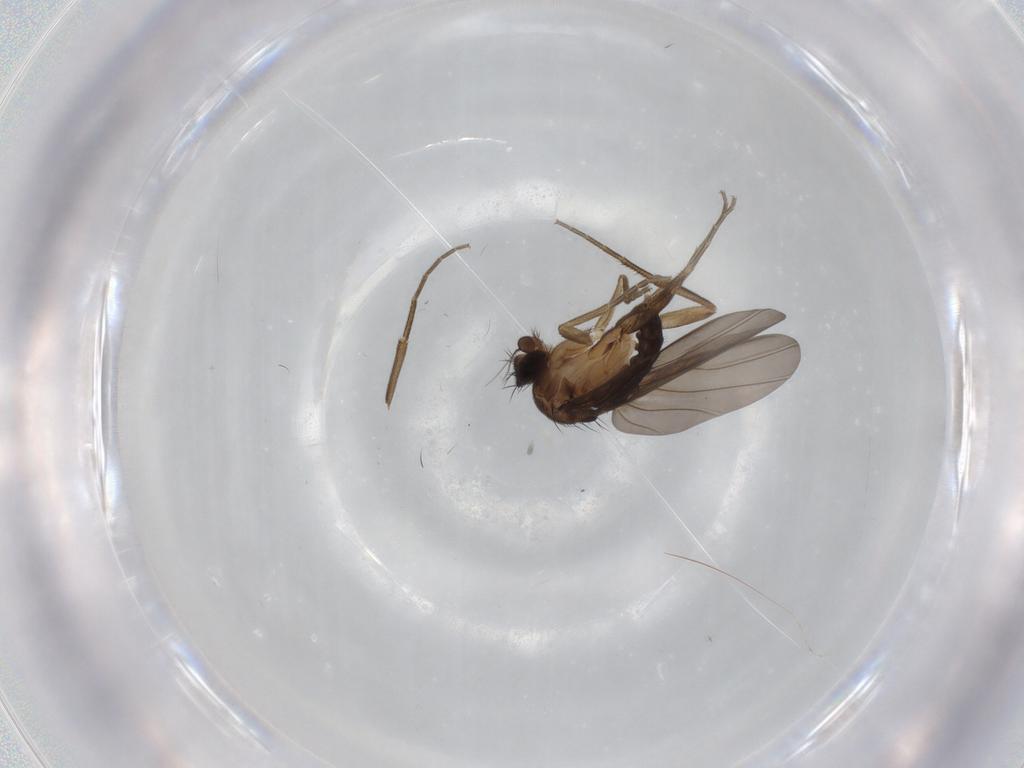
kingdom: Animalia
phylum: Arthropoda
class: Insecta
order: Diptera
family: Phoridae
